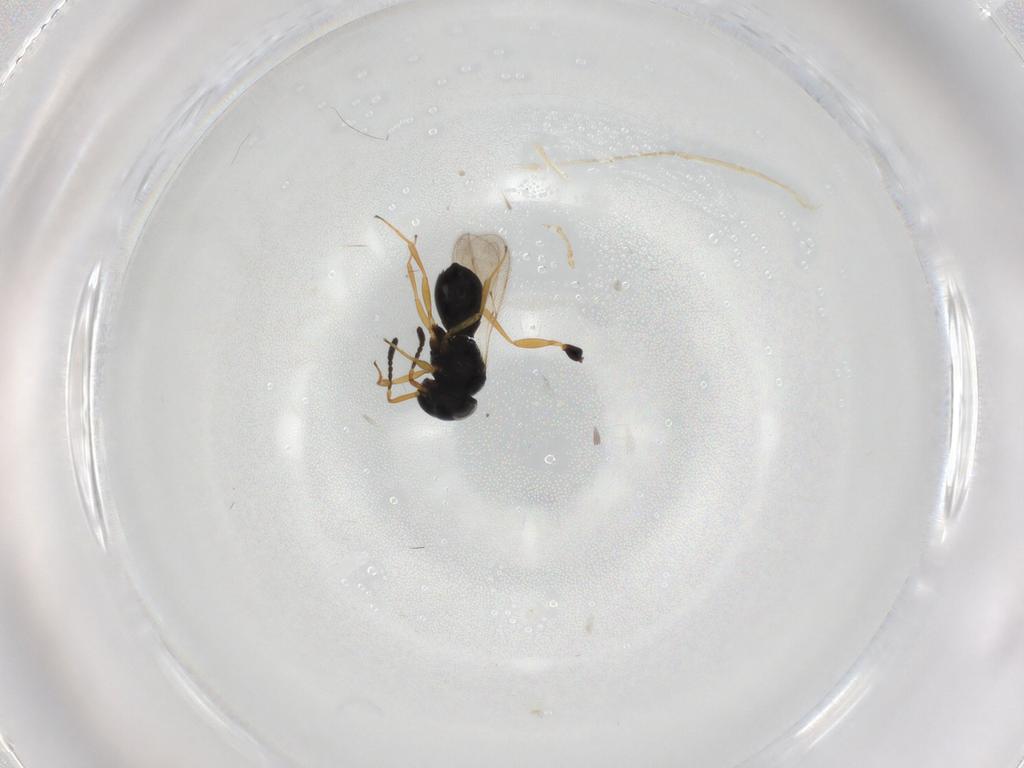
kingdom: Animalia
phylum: Arthropoda
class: Insecta
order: Hymenoptera
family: Scelionidae
